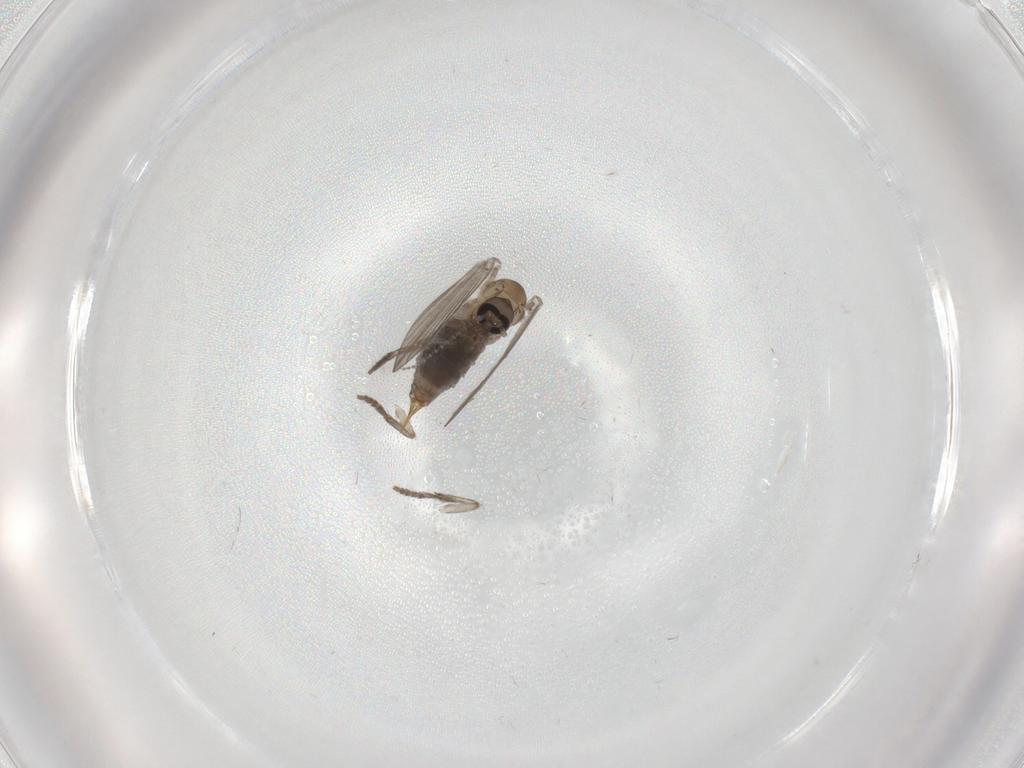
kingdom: Animalia
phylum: Arthropoda
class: Insecta
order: Diptera
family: Psychodidae
